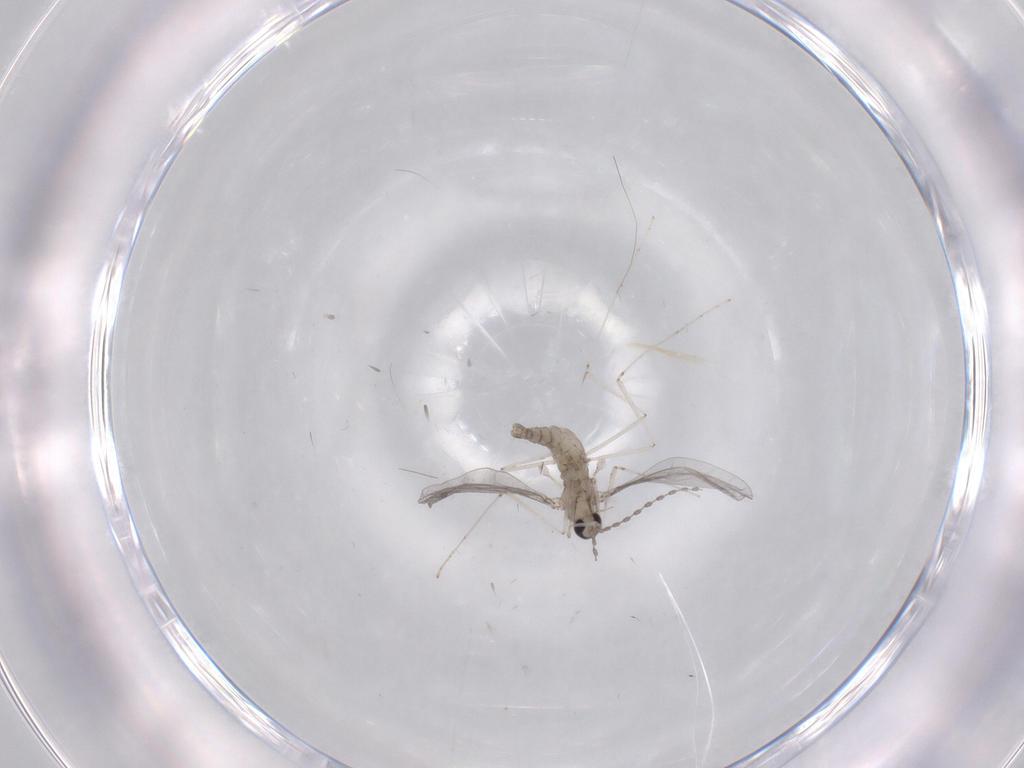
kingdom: Animalia
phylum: Arthropoda
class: Insecta
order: Diptera
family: Cecidomyiidae
